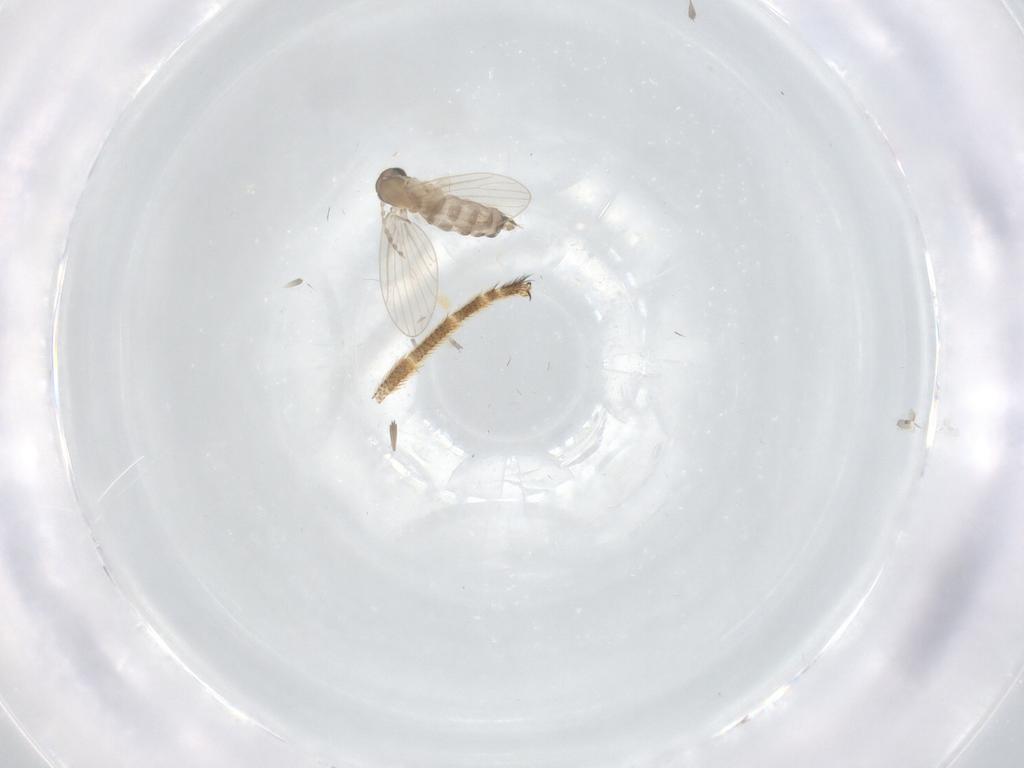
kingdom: Animalia
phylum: Arthropoda
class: Insecta
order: Diptera
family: Stratiomyidae
